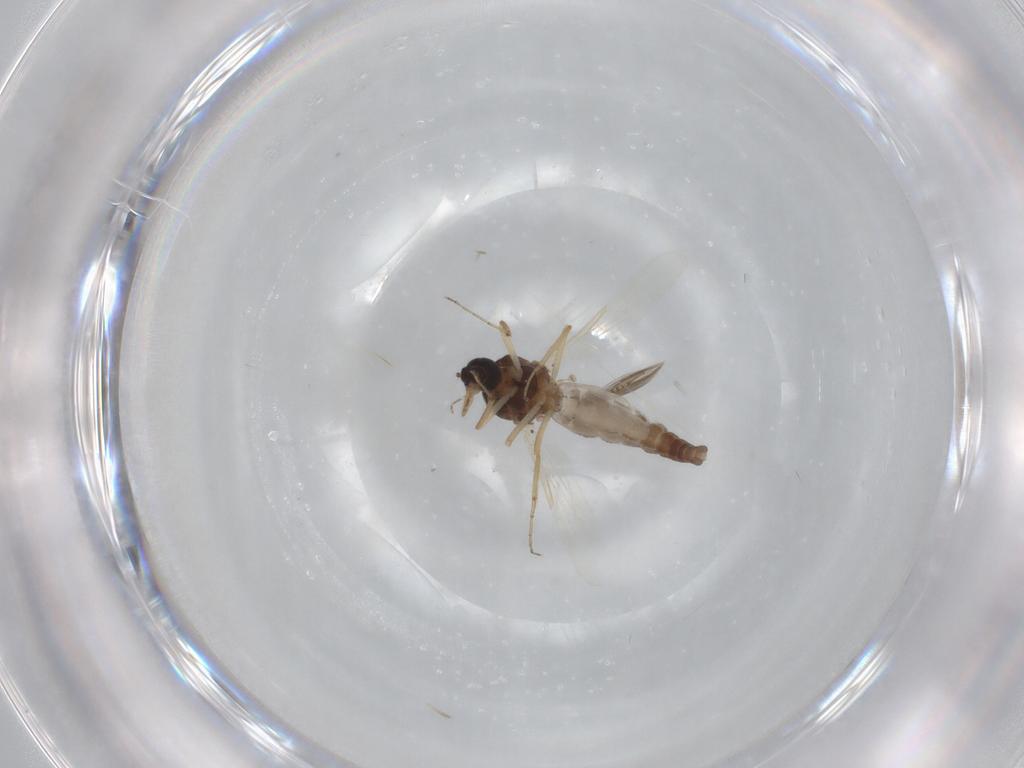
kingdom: Animalia
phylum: Arthropoda
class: Insecta
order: Diptera
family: Ceratopogonidae
